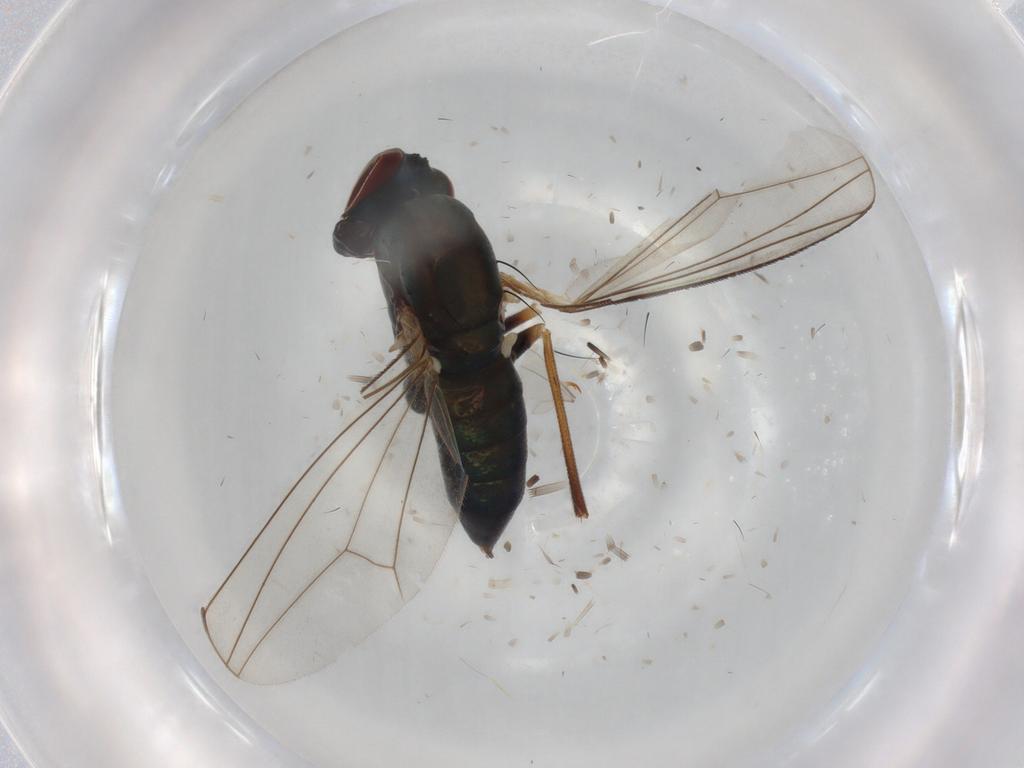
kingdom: Animalia
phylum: Arthropoda
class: Insecta
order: Diptera
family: Dolichopodidae
